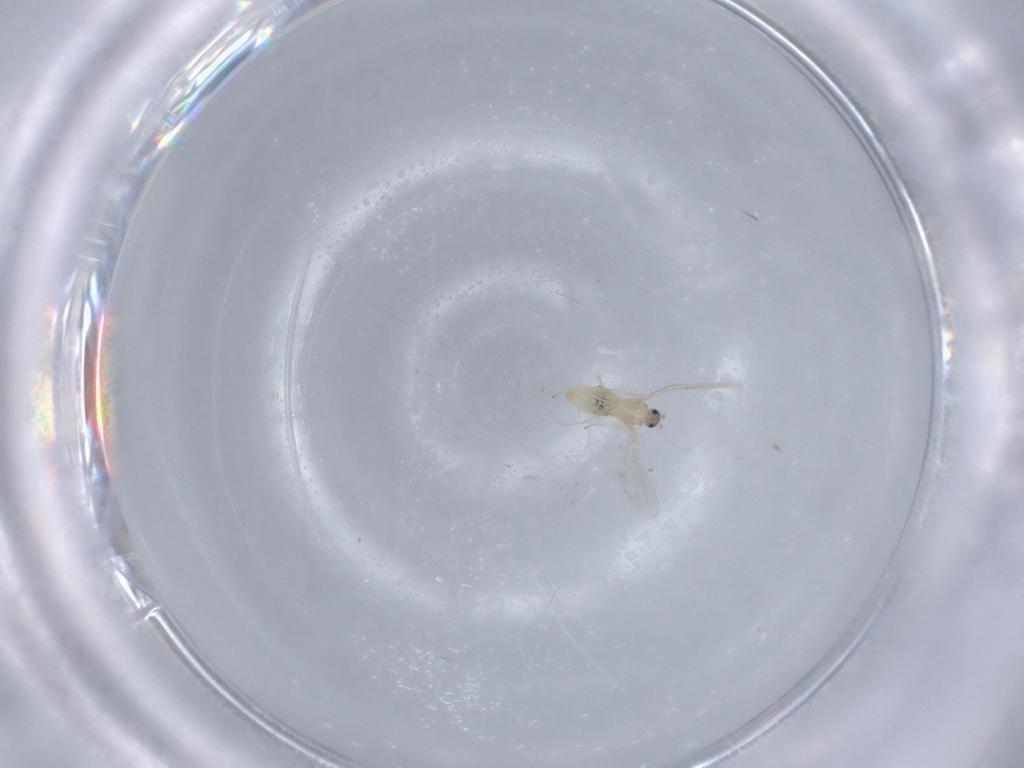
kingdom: Animalia
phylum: Arthropoda
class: Insecta
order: Diptera
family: Cecidomyiidae
